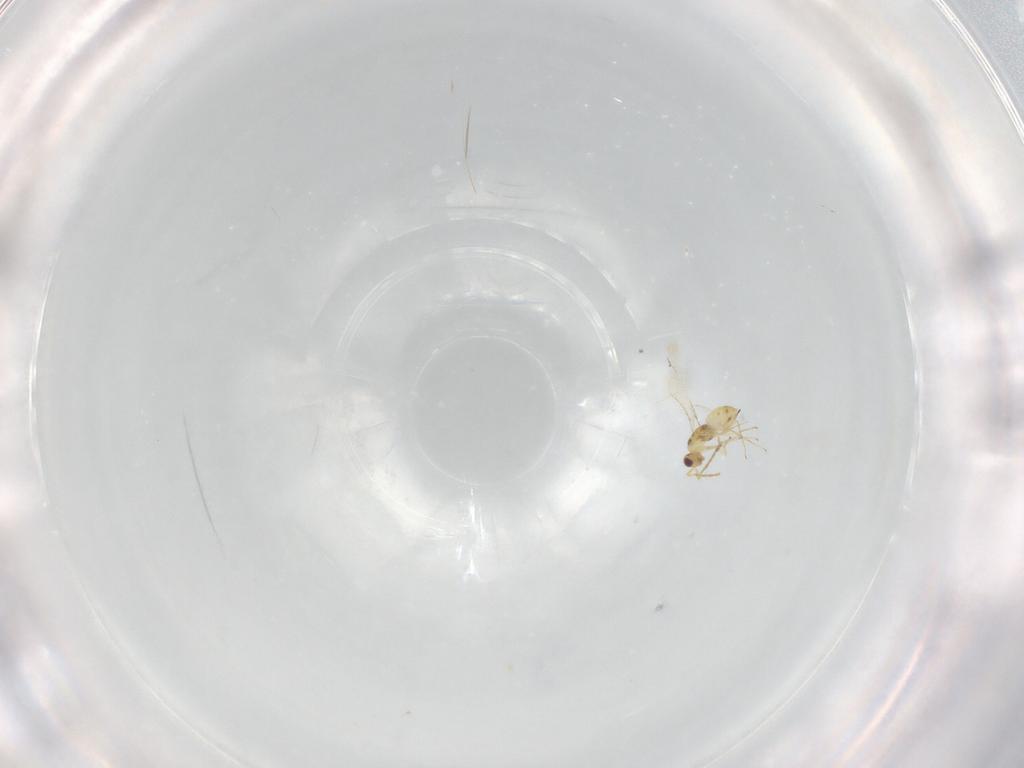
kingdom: Animalia
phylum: Arthropoda
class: Insecta
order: Hymenoptera
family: Mymaridae
